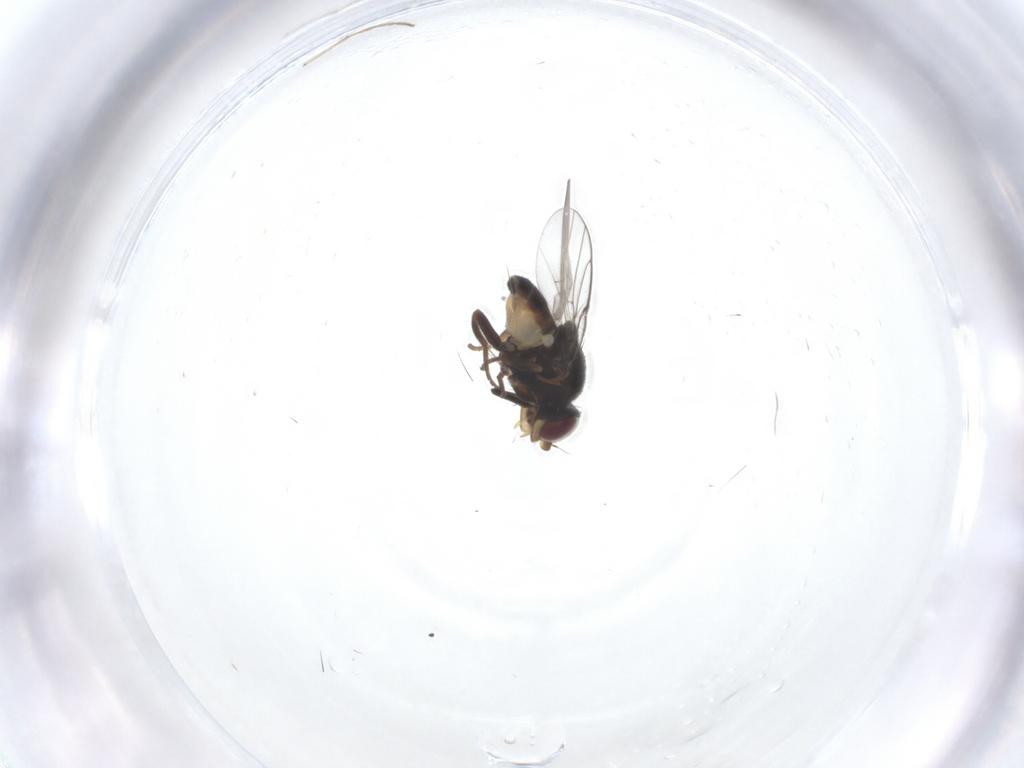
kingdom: Animalia
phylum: Arthropoda
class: Insecta
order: Diptera
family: Chloropidae
